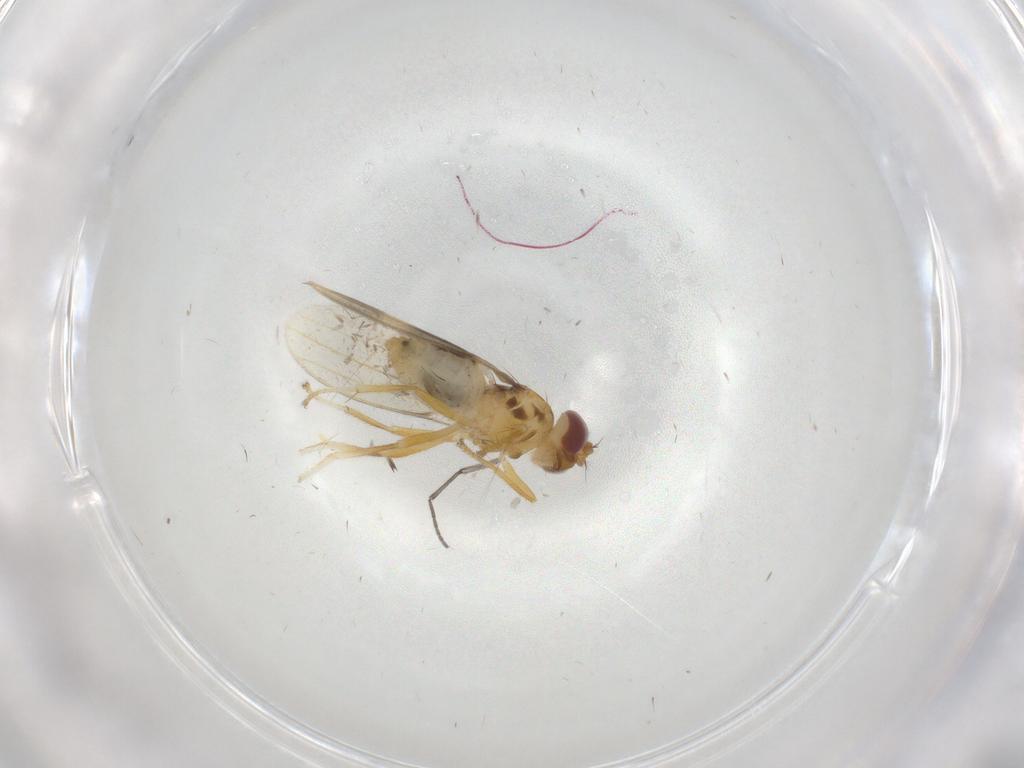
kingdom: Animalia
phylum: Arthropoda
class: Insecta
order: Diptera
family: Periscelididae
